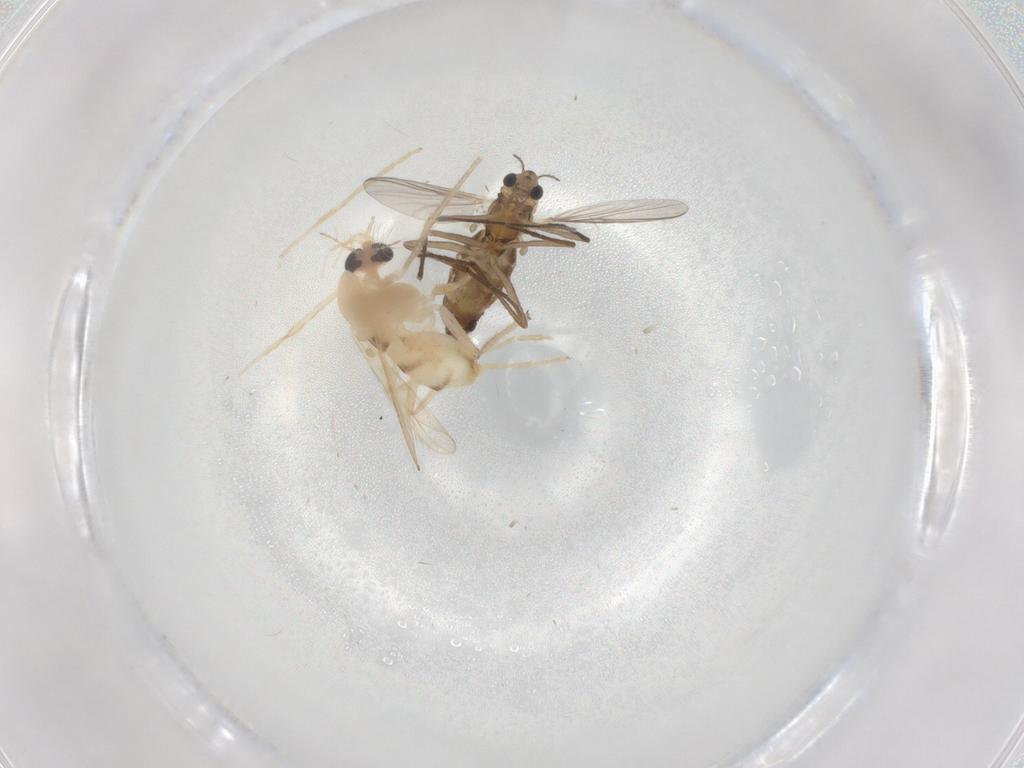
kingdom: Animalia
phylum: Arthropoda
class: Insecta
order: Diptera
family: Chironomidae
